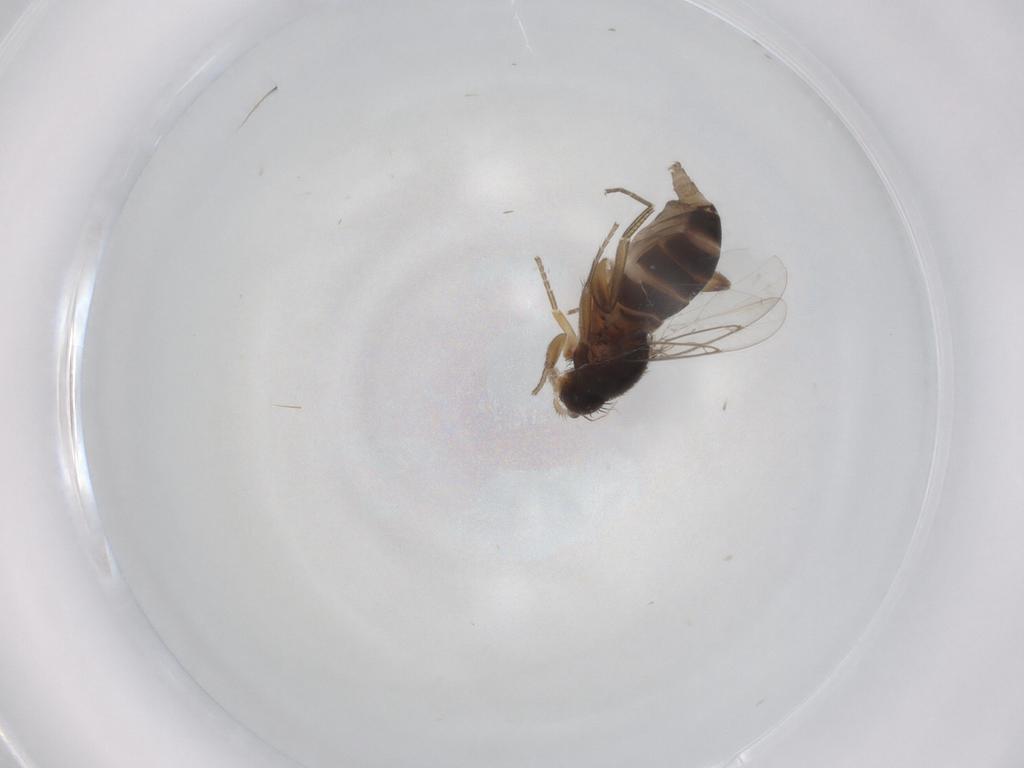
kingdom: Animalia
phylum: Arthropoda
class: Insecta
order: Diptera
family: Phoridae
